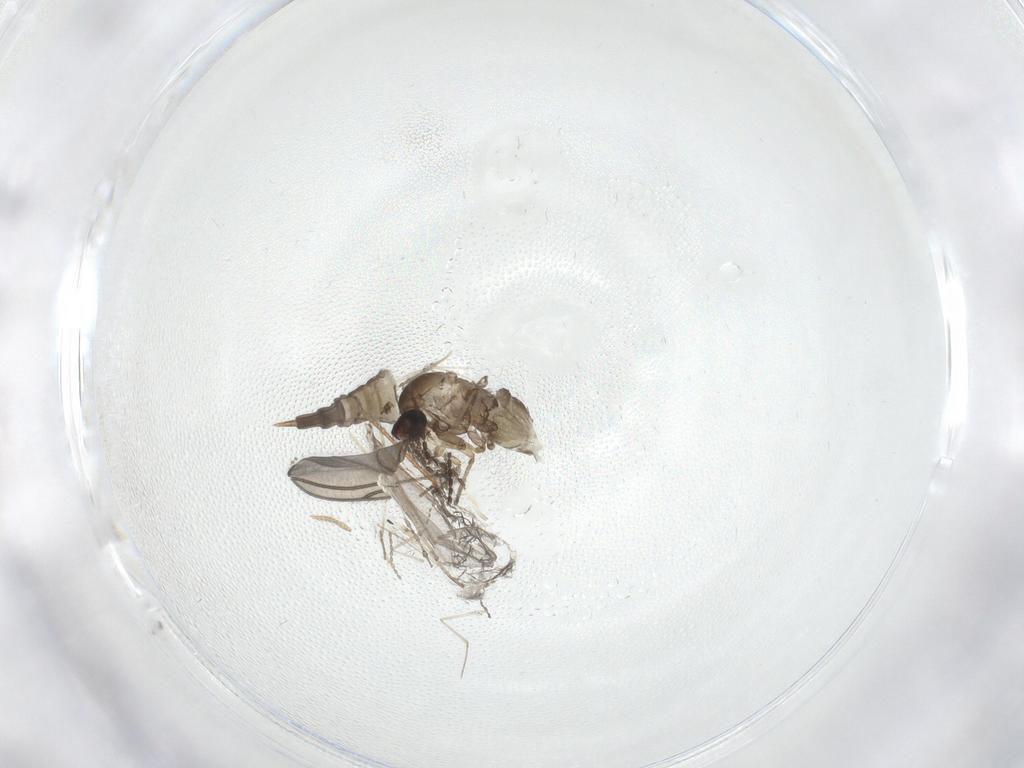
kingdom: Animalia
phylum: Arthropoda
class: Insecta
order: Diptera
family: Cecidomyiidae
